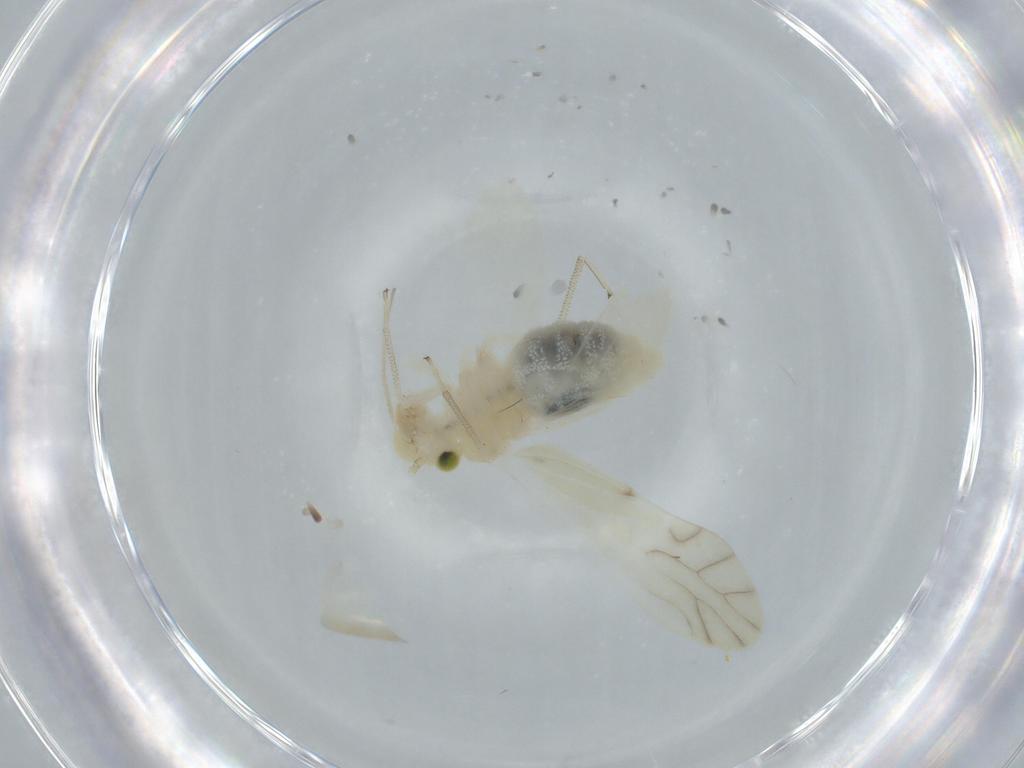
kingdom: Animalia
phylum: Arthropoda
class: Insecta
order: Psocodea
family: Caeciliusidae
